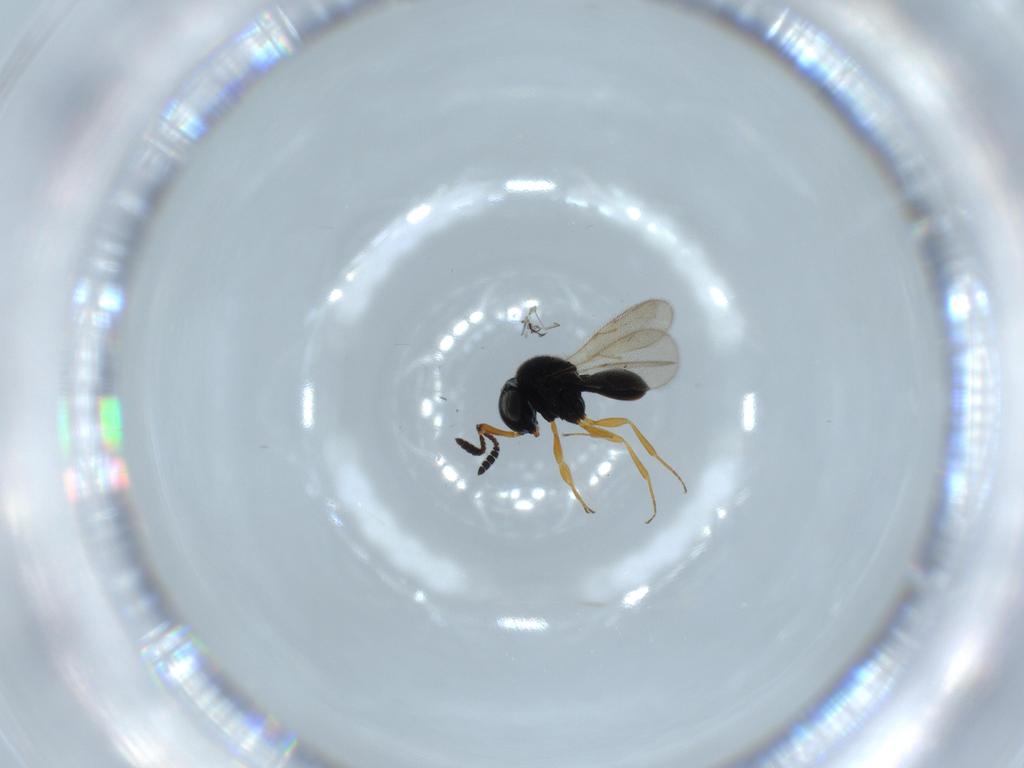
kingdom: Animalia
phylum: Arthropoda
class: Insecta
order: Hymenoptera
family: Scelionidae
